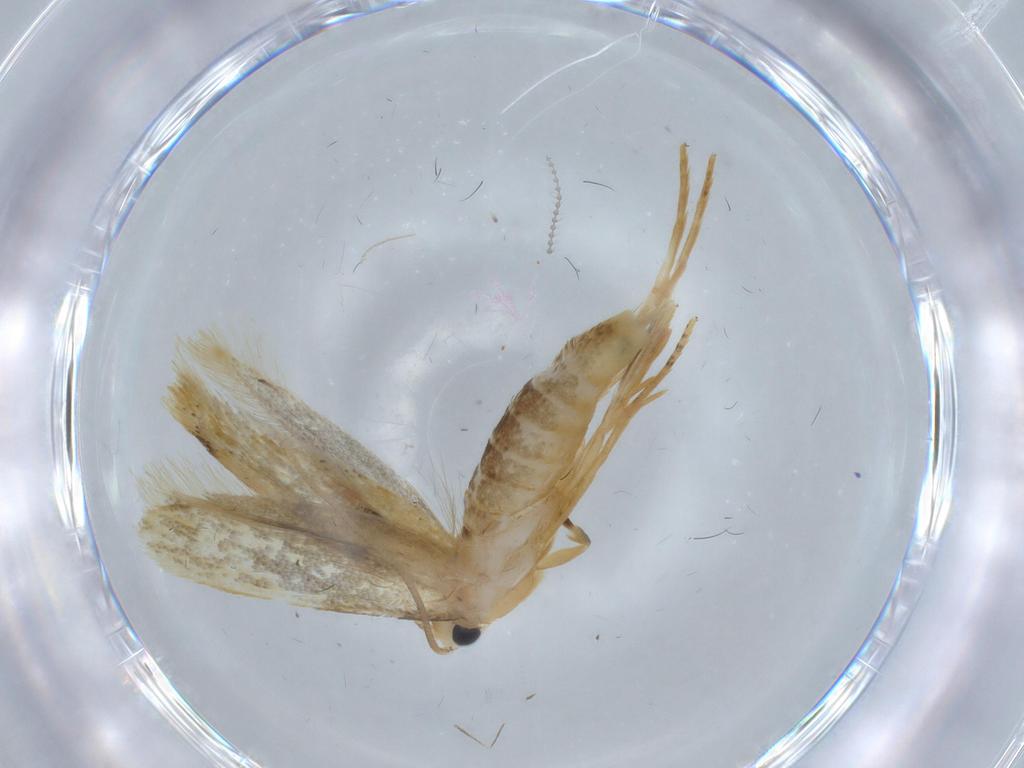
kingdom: Animalia
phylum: Arthropoda
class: Insecta
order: Lepidoptera
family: Tineidae
